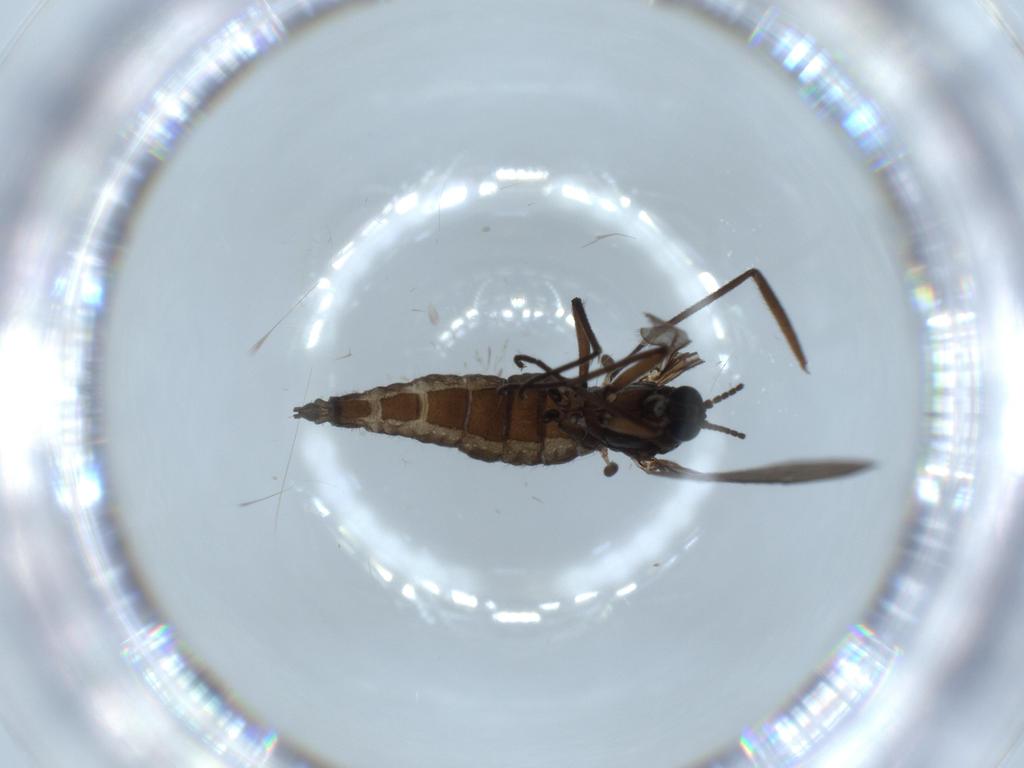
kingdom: Animalia
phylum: Arthropoda
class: Insecta
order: Diptera
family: Sciaridae
